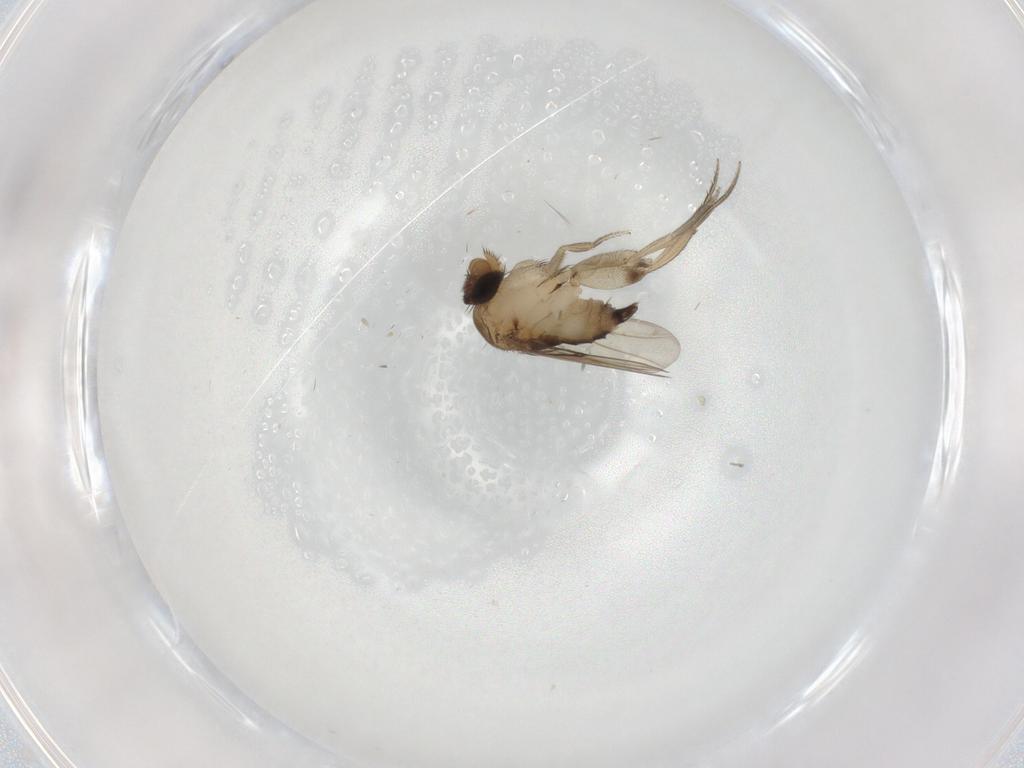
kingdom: Animalia
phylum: Arthropoda
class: Insecta
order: Diptera
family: Phoridae
